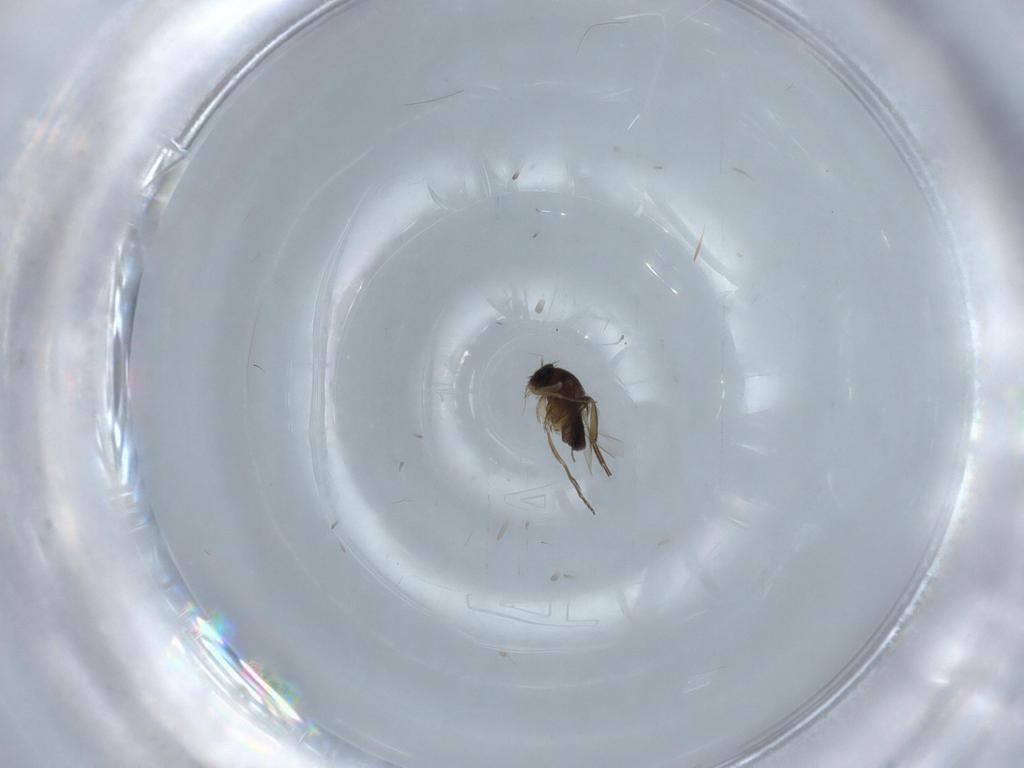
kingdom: Animalia
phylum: Arthropoda
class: Insecta
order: Diptera
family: Phoridae
